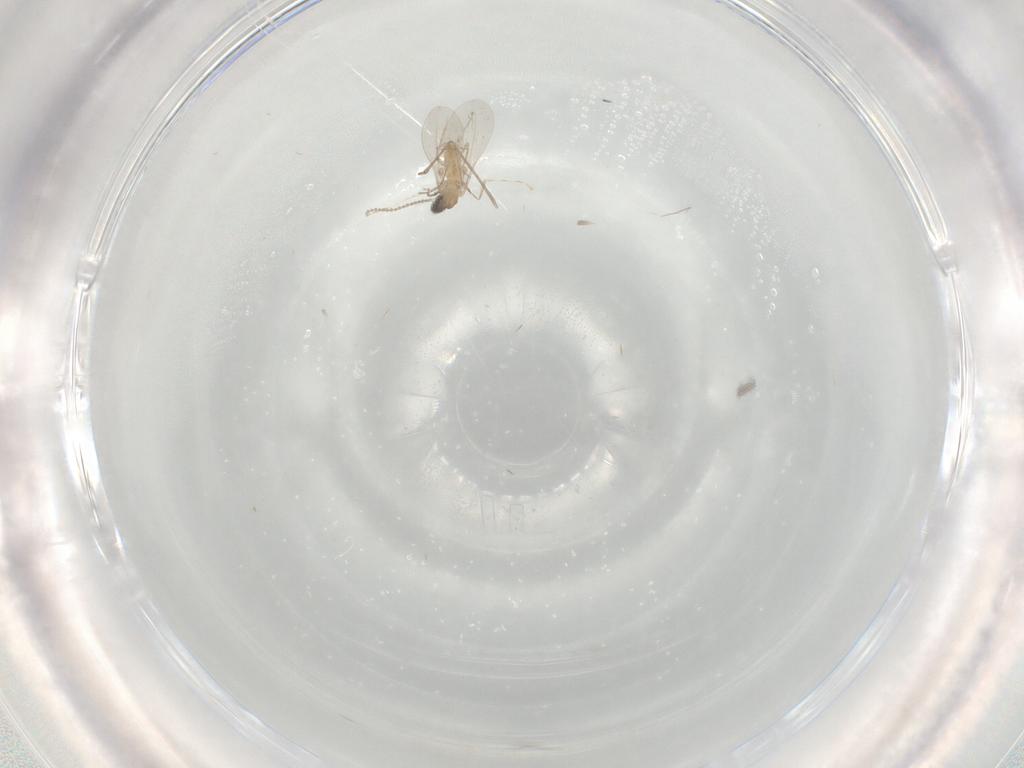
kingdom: Animalia
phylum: Arthropoda
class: Insecta
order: Diptera
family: Cecidomyiidae
